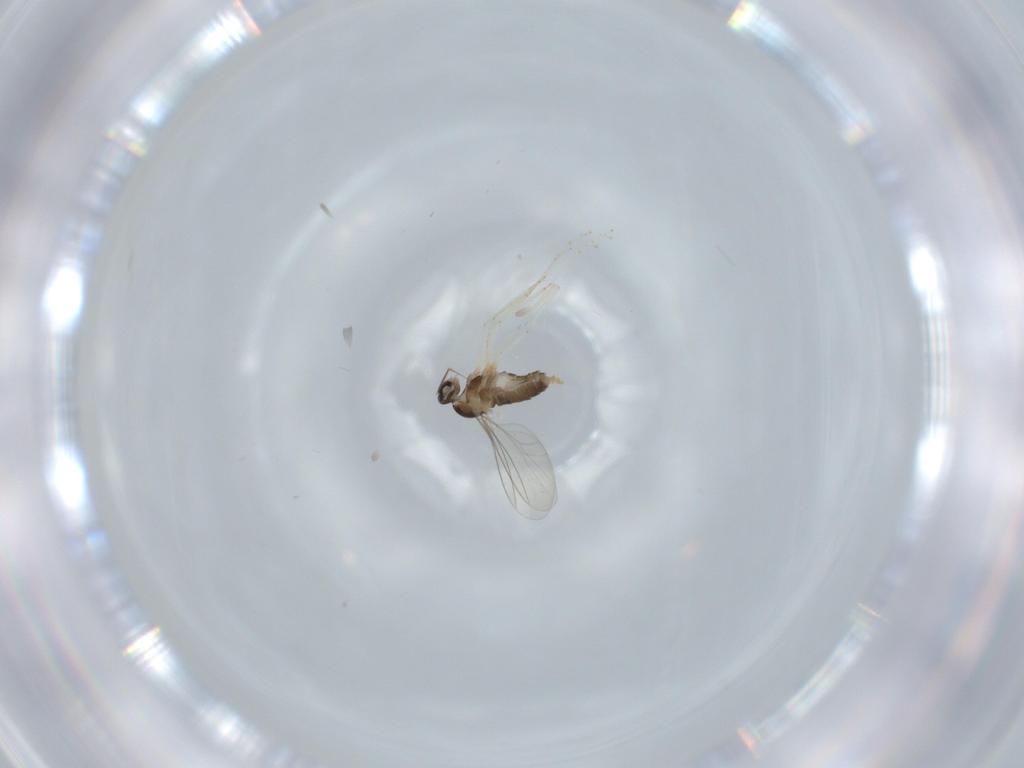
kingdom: Animalia
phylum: Arthropoda
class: Insecta
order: Diptera
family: Cecidomyiidae
